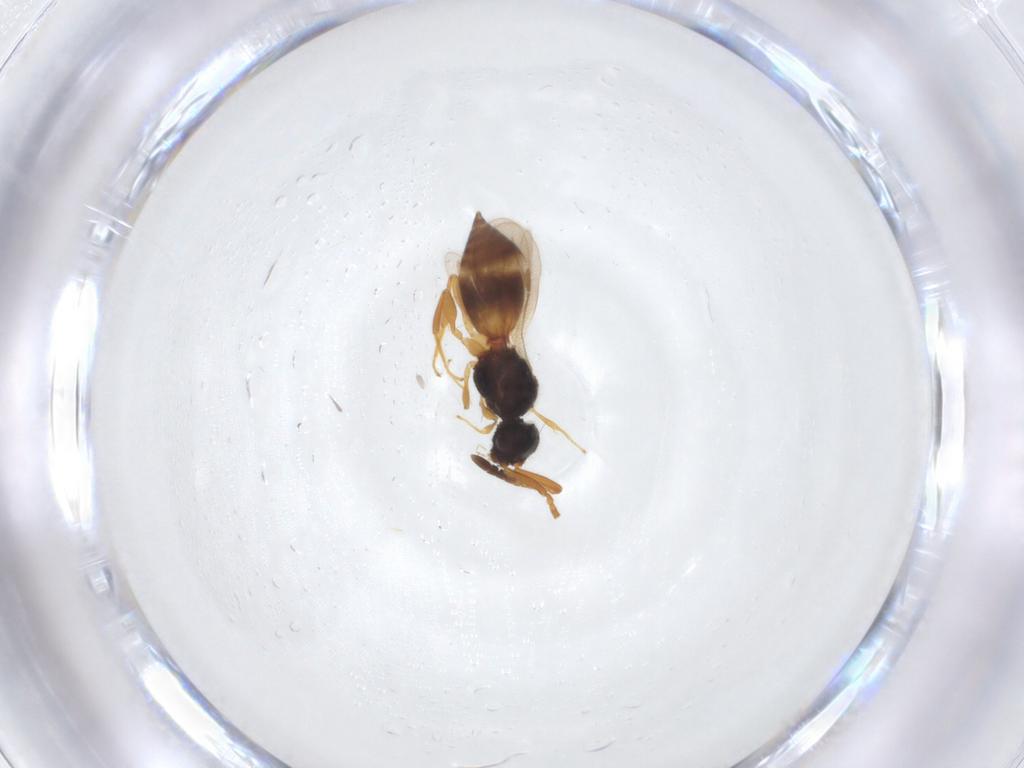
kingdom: Animalia
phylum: Arthropoda
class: Insecta
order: Hymenoptera
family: Megaspilidae
